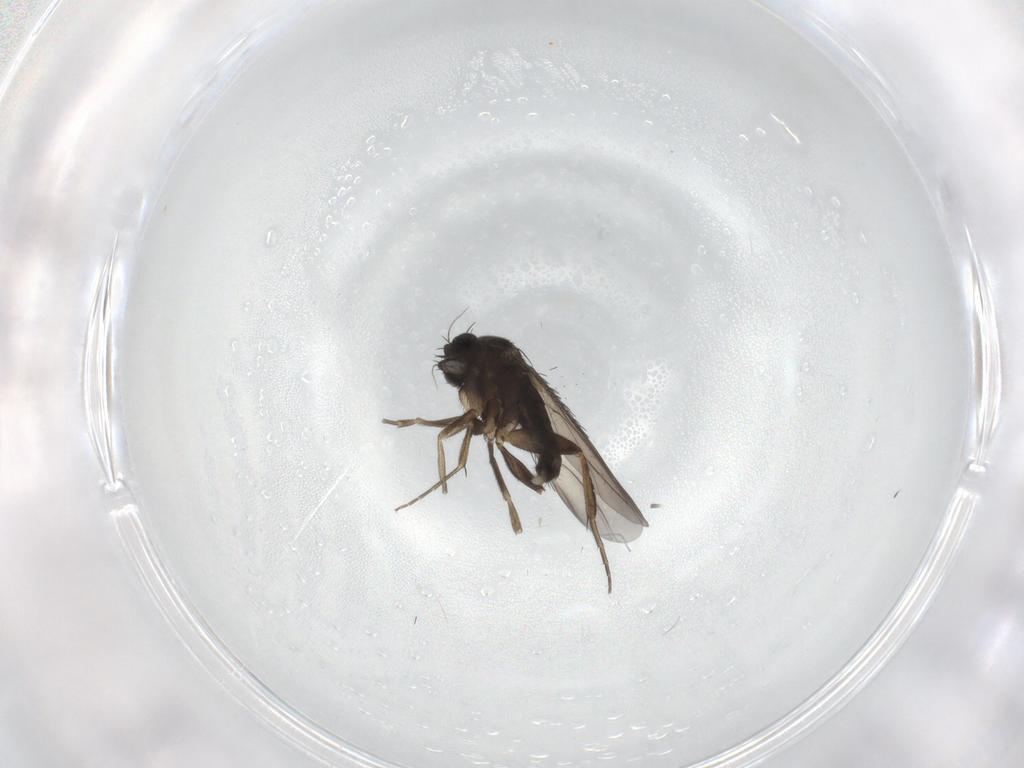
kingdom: Animalia
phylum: Arthropoda
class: Insecta
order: Diptera
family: Phoridae
